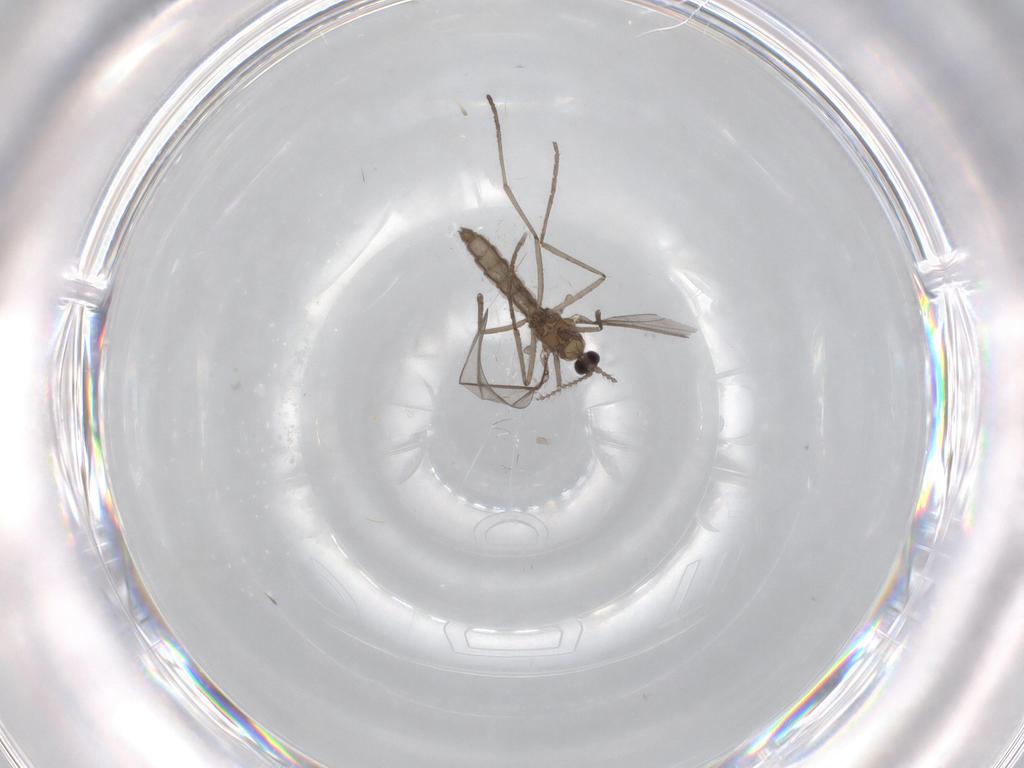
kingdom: Animalia
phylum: Arthropoda
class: Insecta
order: Diptera
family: Cecidomyiidae
